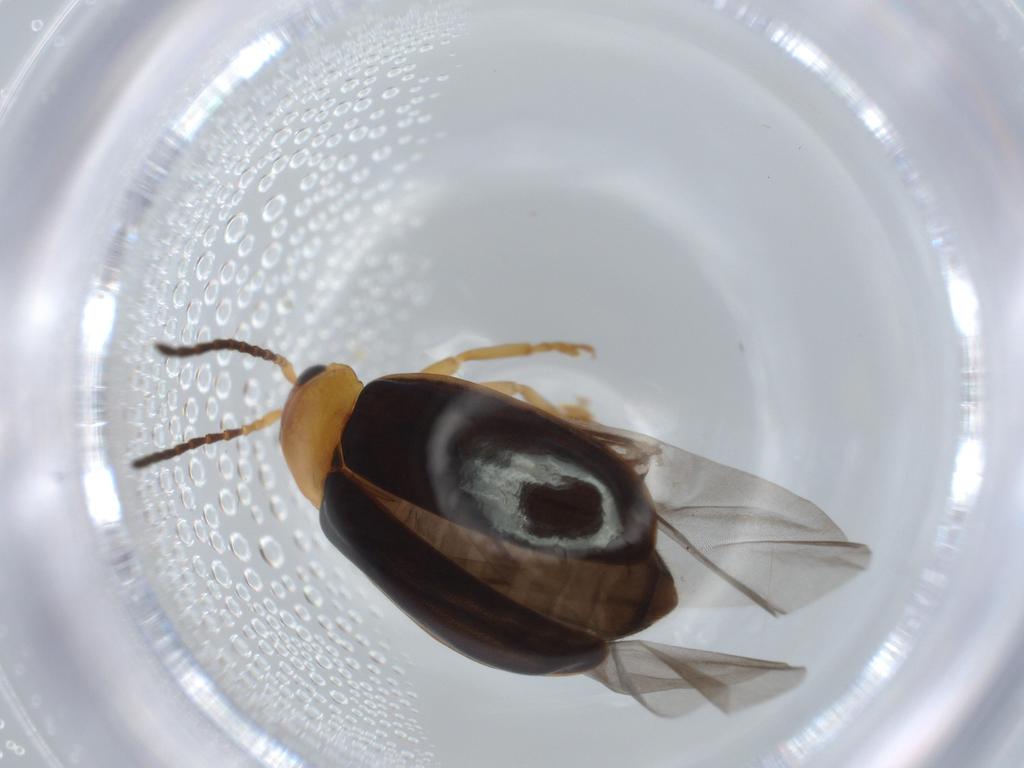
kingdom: Animalia
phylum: Arthropoda
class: Insecta
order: Coleoptera
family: Chrysomelidae
